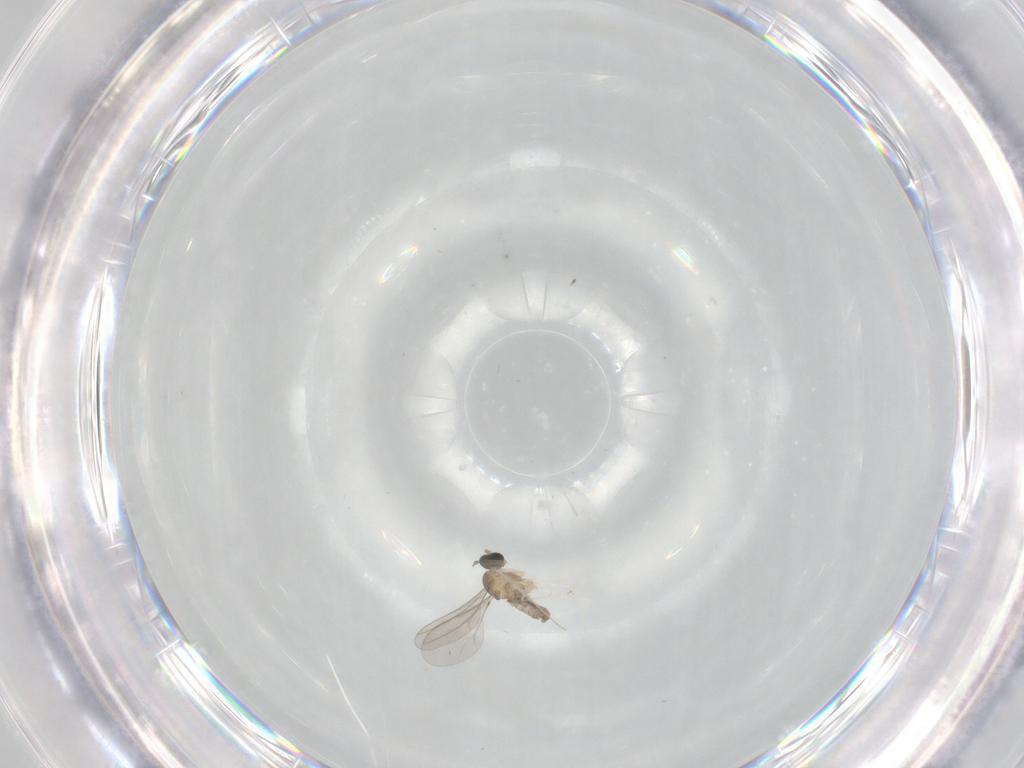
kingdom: Animalia
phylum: Arthropoda
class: Insecta
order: Diptera
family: Cecidomyiidae
